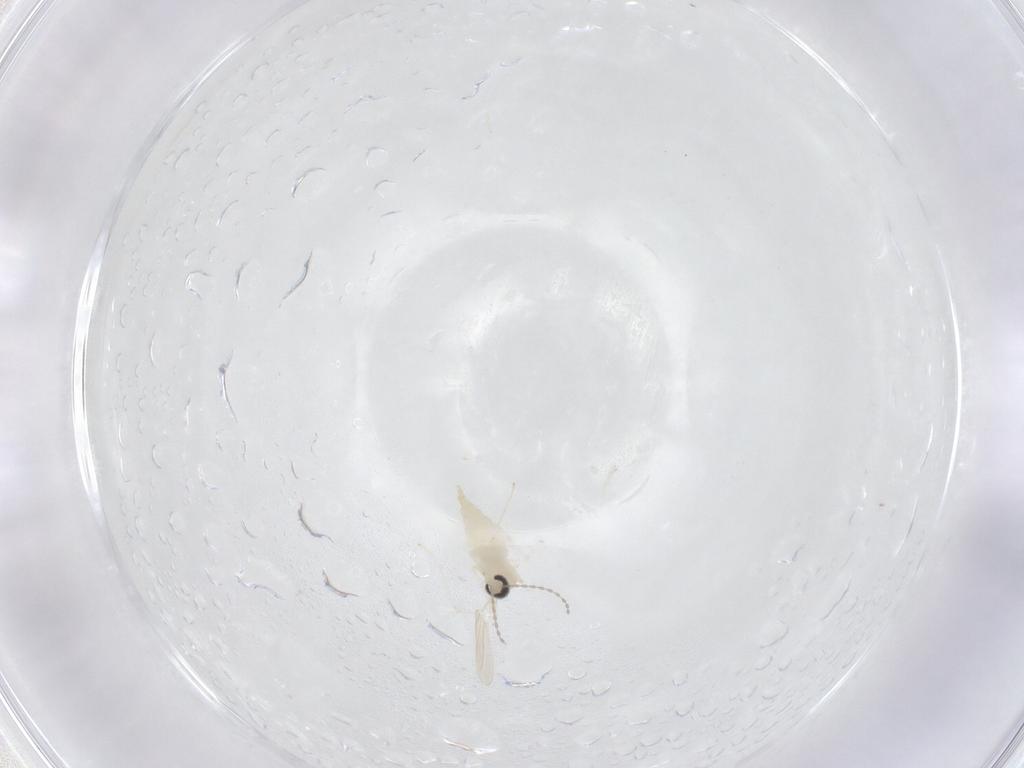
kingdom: Animalia
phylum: Arthropoda
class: Insecta
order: Diptera
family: Cecidomyiidae
